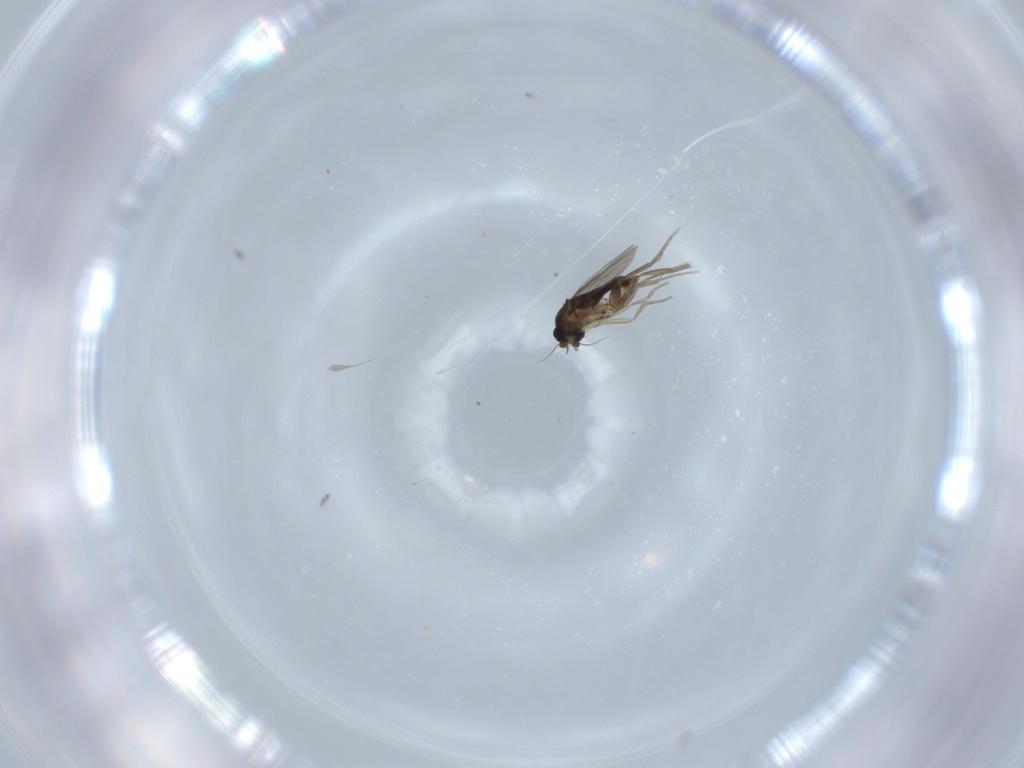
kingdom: Animalia
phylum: Arthropoda
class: Insecta
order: Diptera
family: Phoridae
